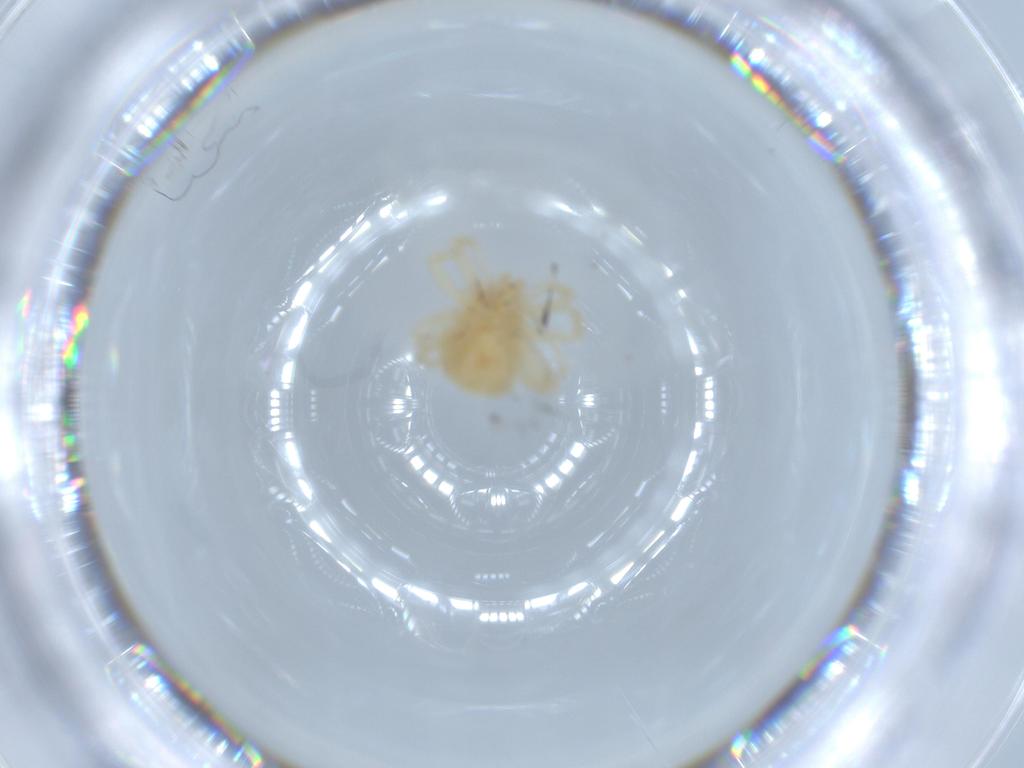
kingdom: Animalia
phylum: Arthropoda
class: Arachnida
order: Trombidiformes
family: Anystidae
